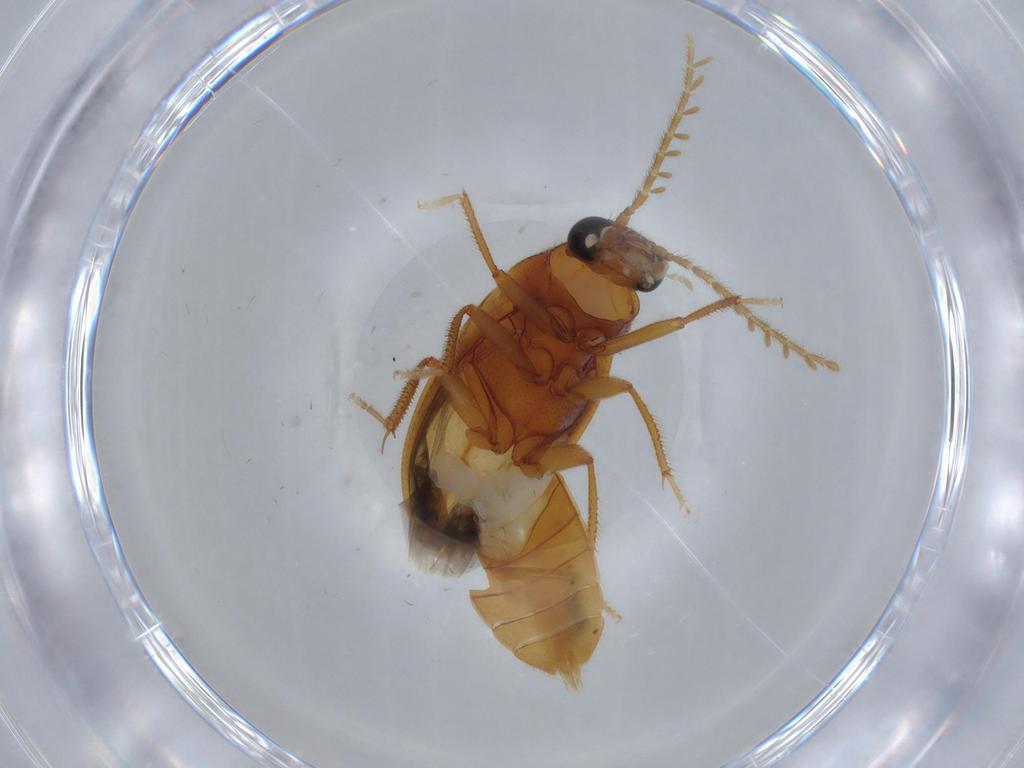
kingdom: Animalia
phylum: Arthropoda
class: Insecta
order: Coleoptera
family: Ptilodactylidae
